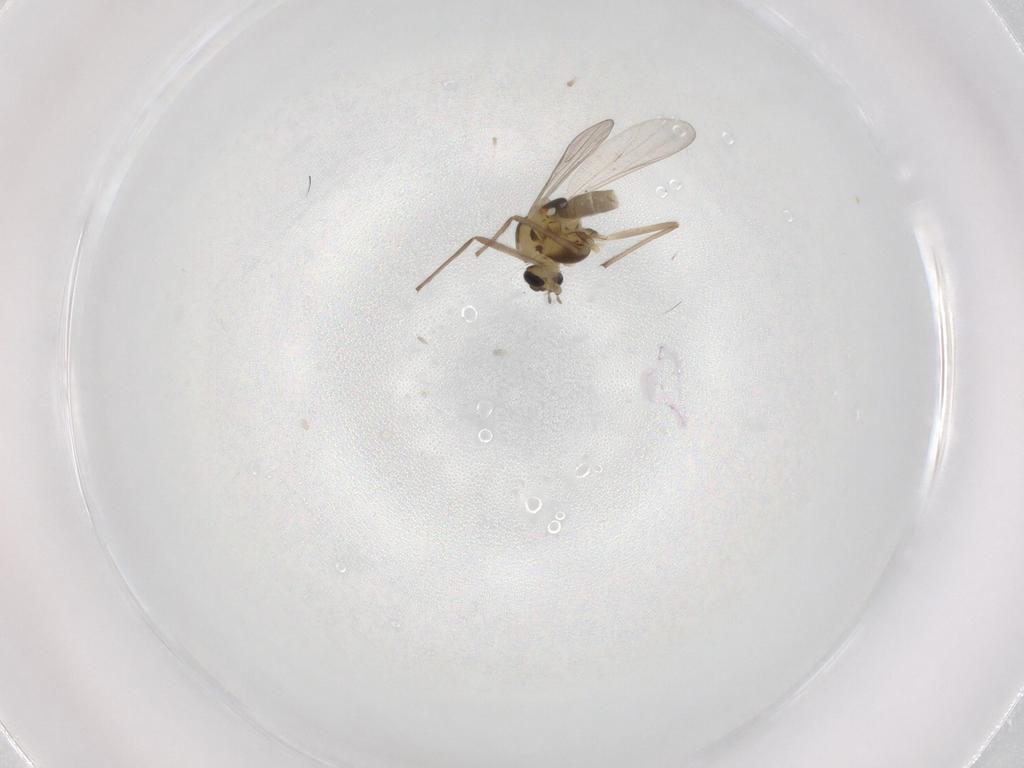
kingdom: Animalia
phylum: Arthropoda
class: Insecta
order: Diptera
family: Chironomidae
